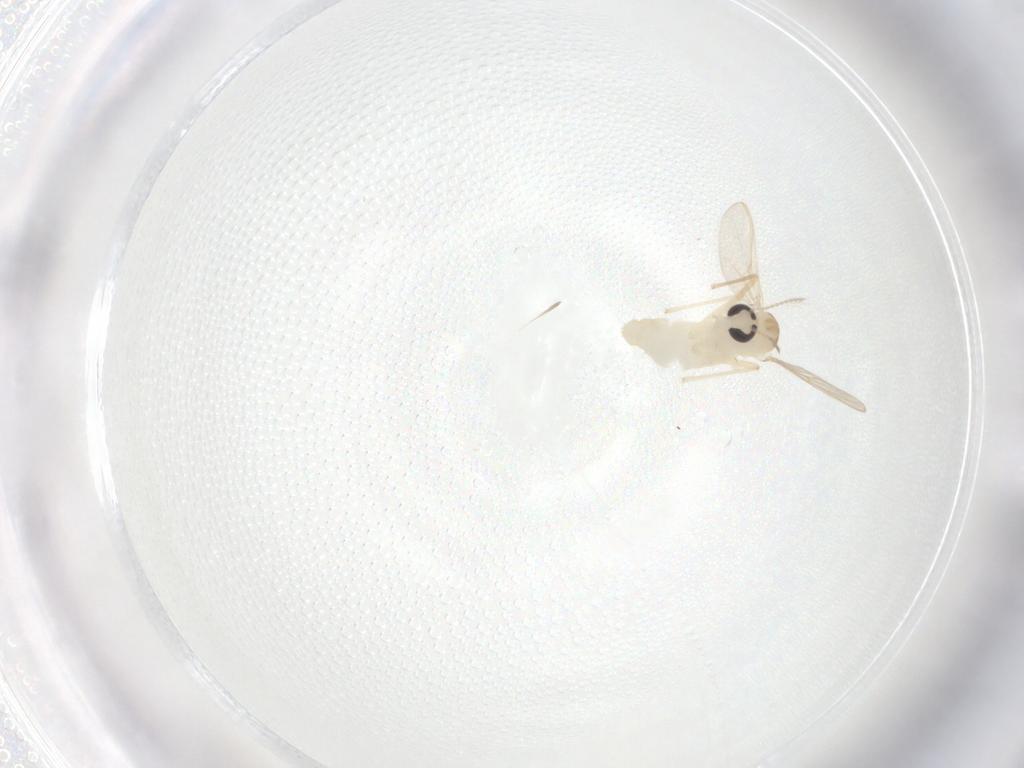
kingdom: Animalia
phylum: Arthropoda
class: Insecta
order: Diptera
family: Chironomidae
